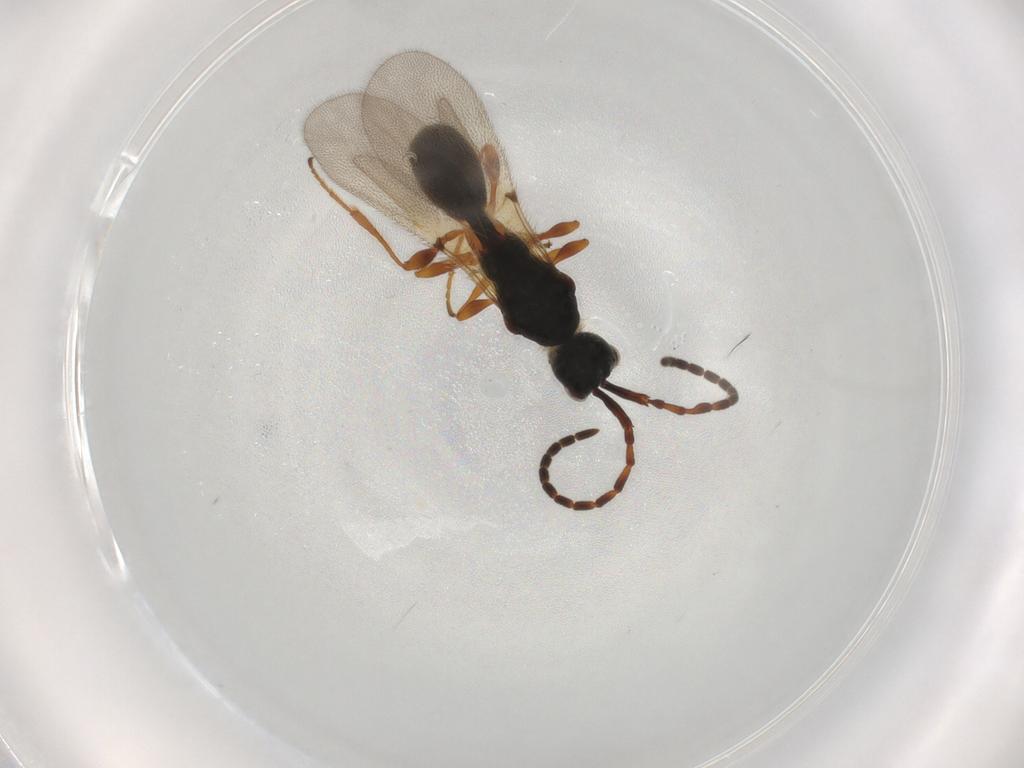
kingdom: Animalia
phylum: Arthropoda
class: Insecta
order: Hymenoptera
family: Diapriidae
